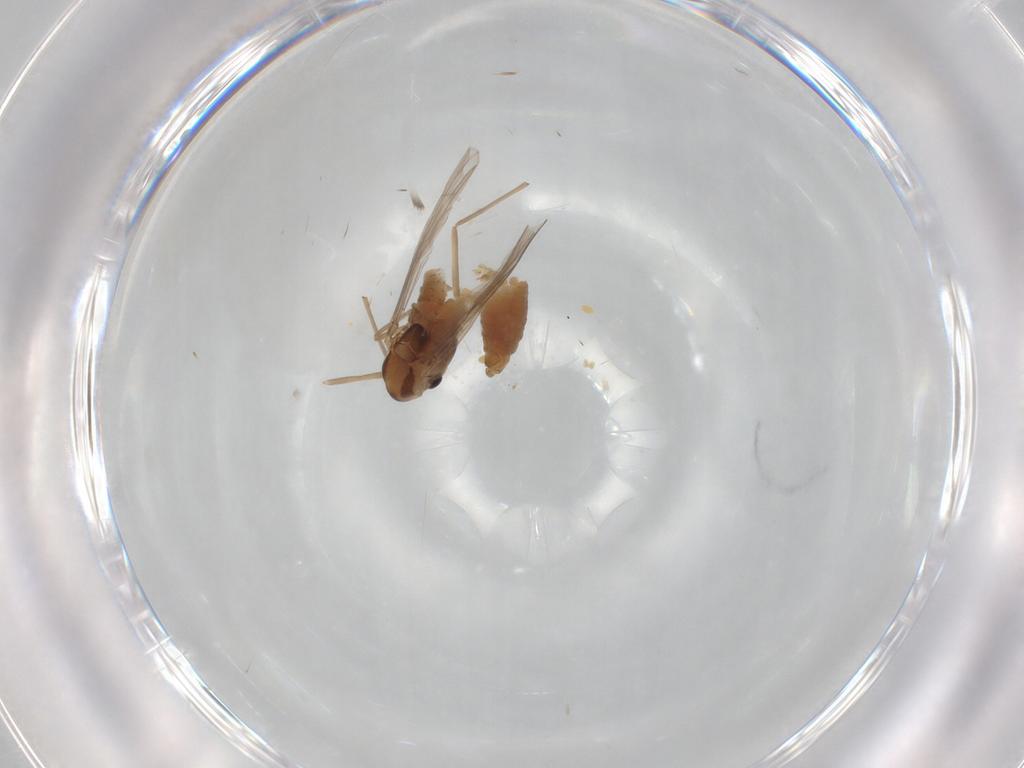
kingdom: Animalia
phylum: Arthropoda
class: Insecta
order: Diptera
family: Chironomidae
